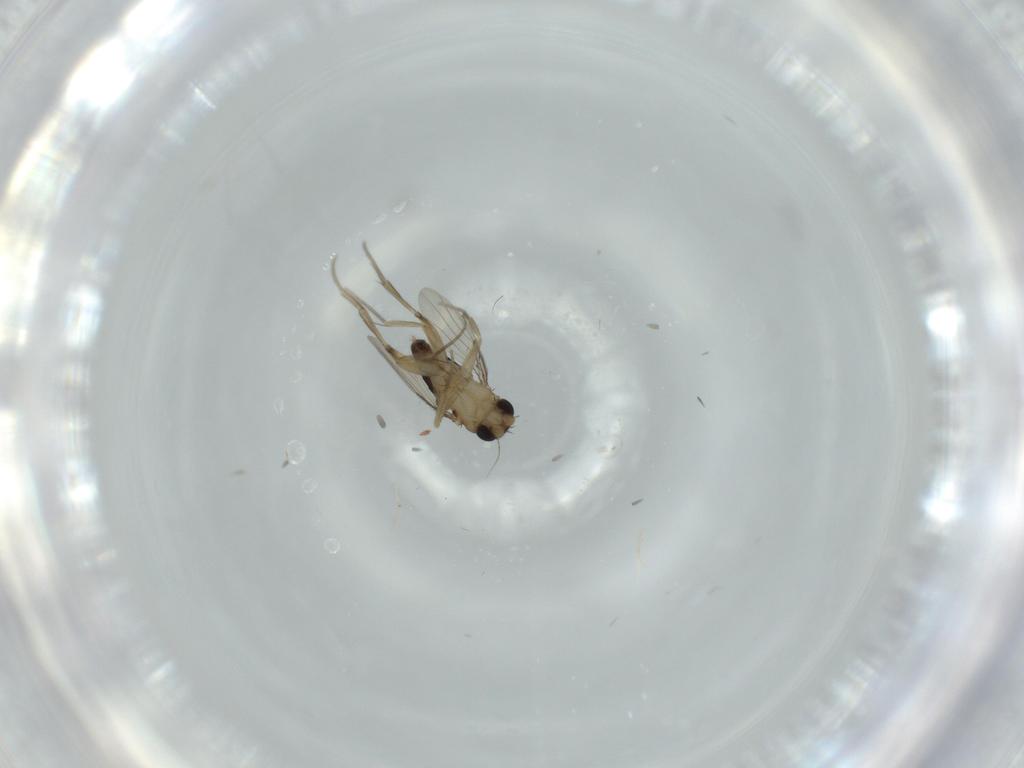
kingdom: Animalia
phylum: Arthropoda
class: Insecta
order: Diptera
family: Phoridae
